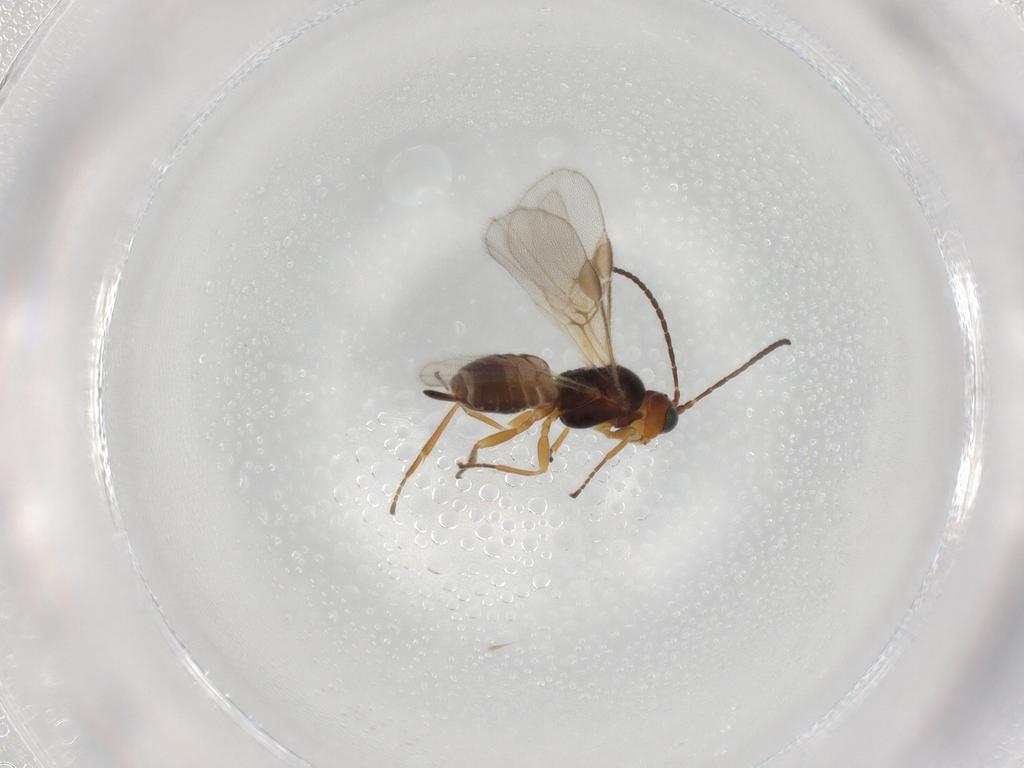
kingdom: Animalia
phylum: Arthropoda
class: Insecta
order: Hymenoptera
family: Braconidae
